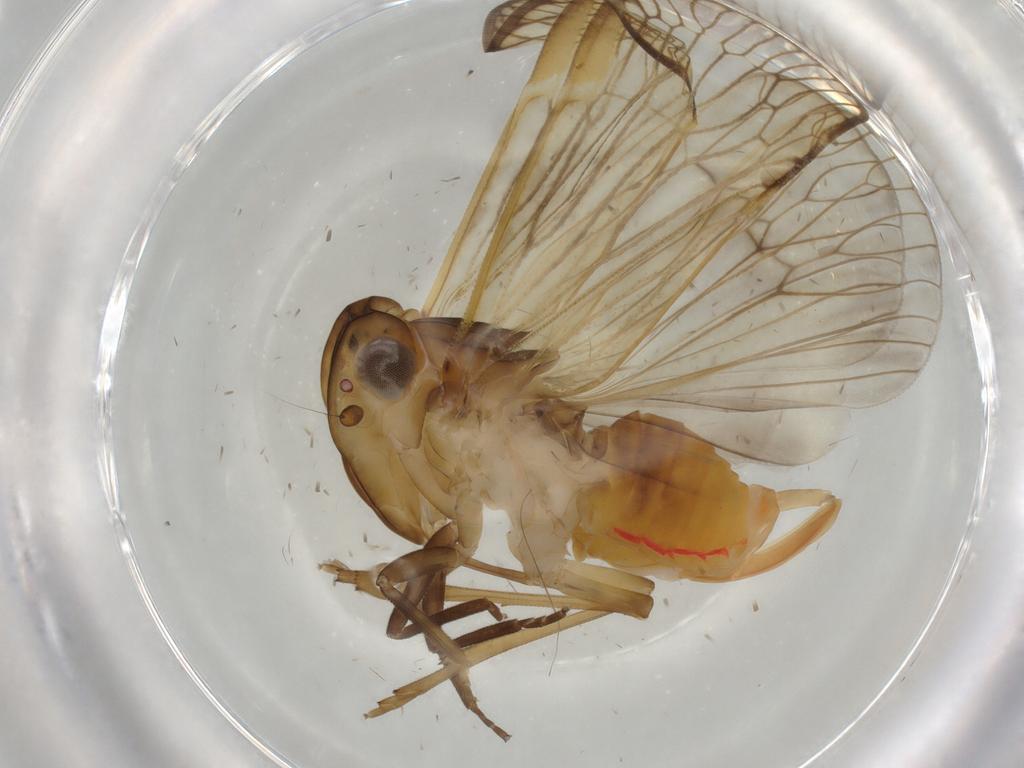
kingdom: Animalia
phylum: Arthropoda
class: Insecta
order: Hemiptera
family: Cixiidae
